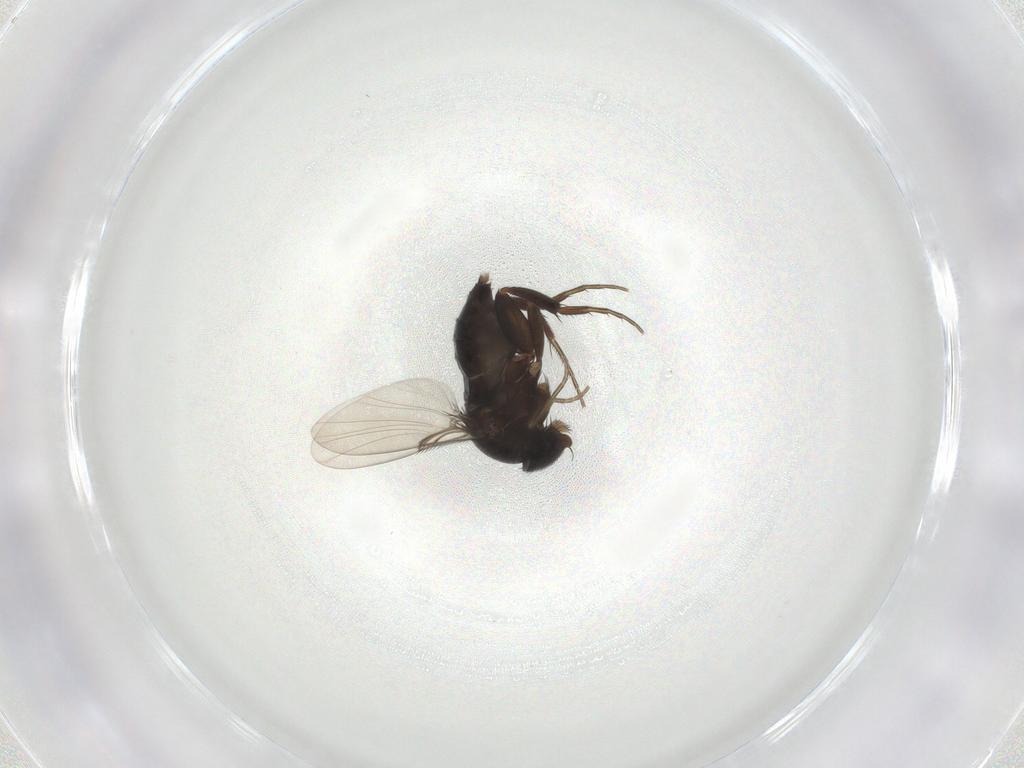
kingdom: Animalia
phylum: Arthropoda
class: Insecta
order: Diptera
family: Phoridae
